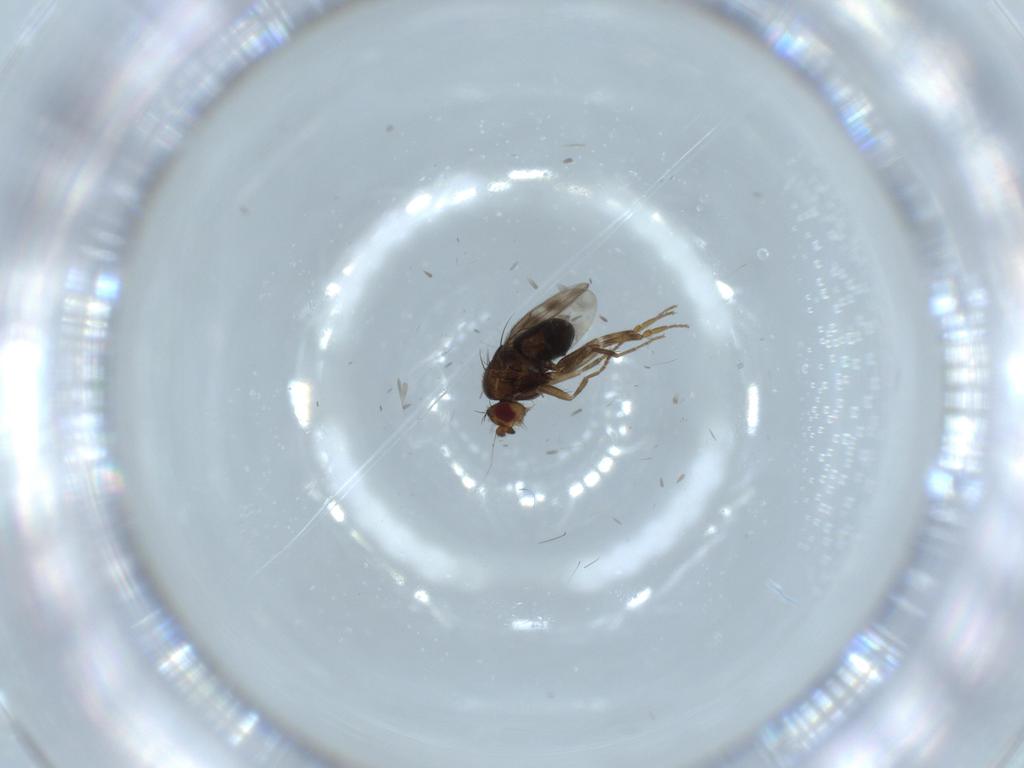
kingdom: Animalia
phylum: Arthropoda
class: Insecta
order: Diptera
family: Sphaeroceridae
